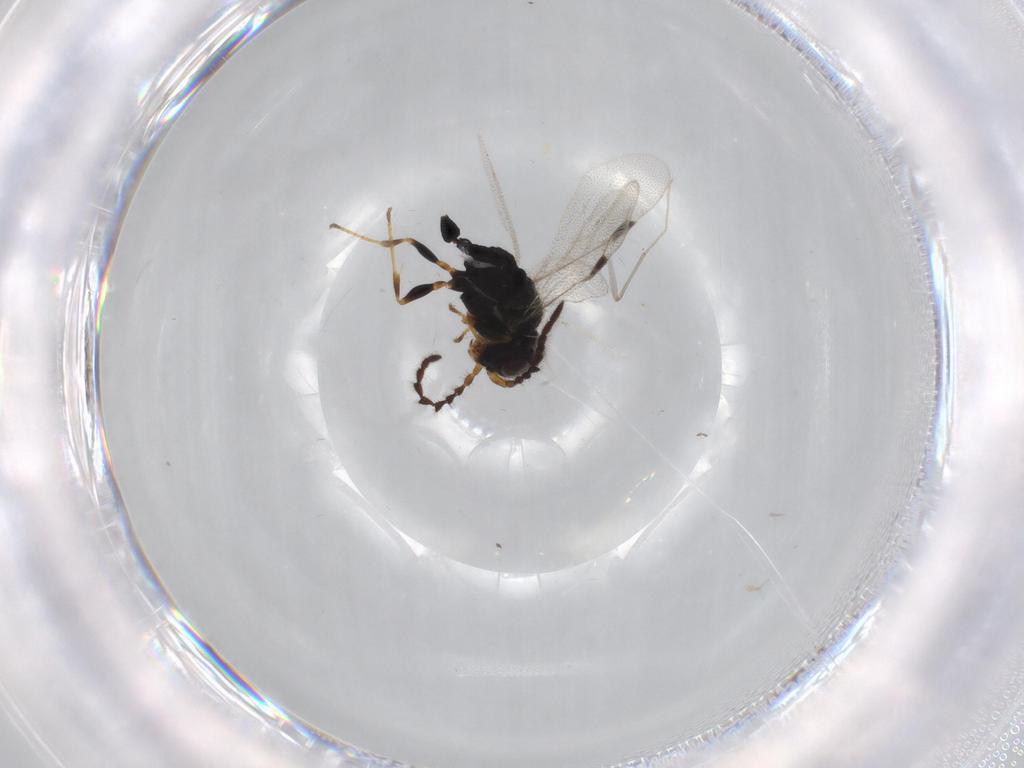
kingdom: Animalia
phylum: Arthropoda
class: Insecta
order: Hymenoptera
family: Dryinidae
